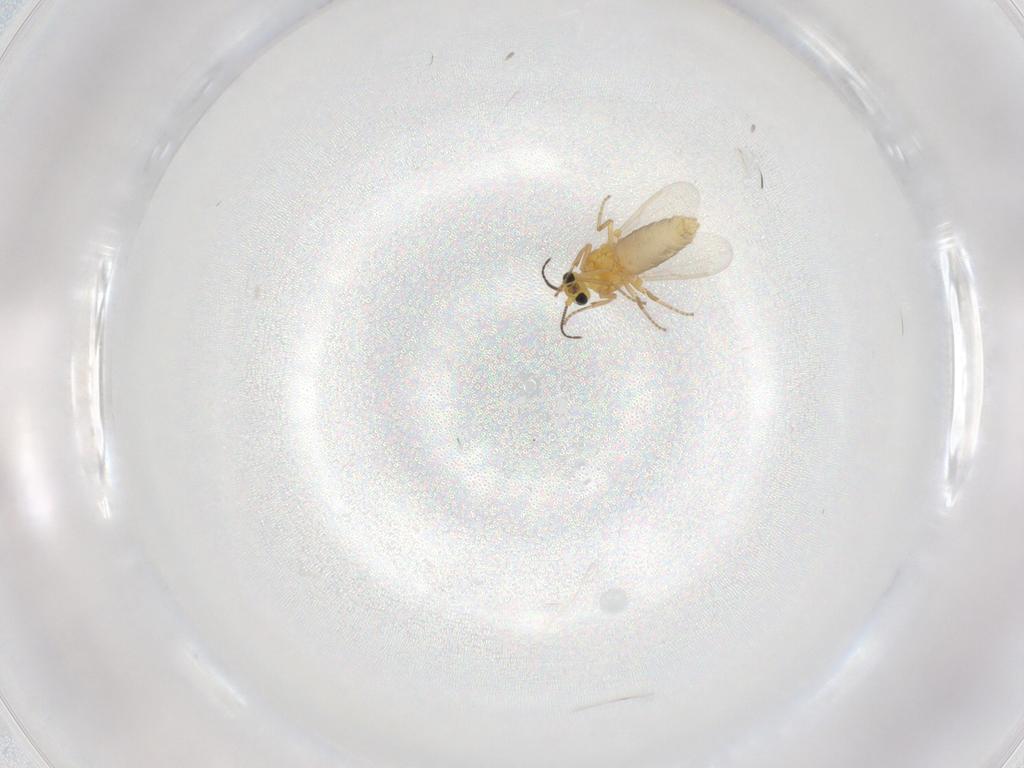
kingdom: Animalia
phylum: Arthropoda
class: Insecta
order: Diptera
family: Ceratopogonidae
